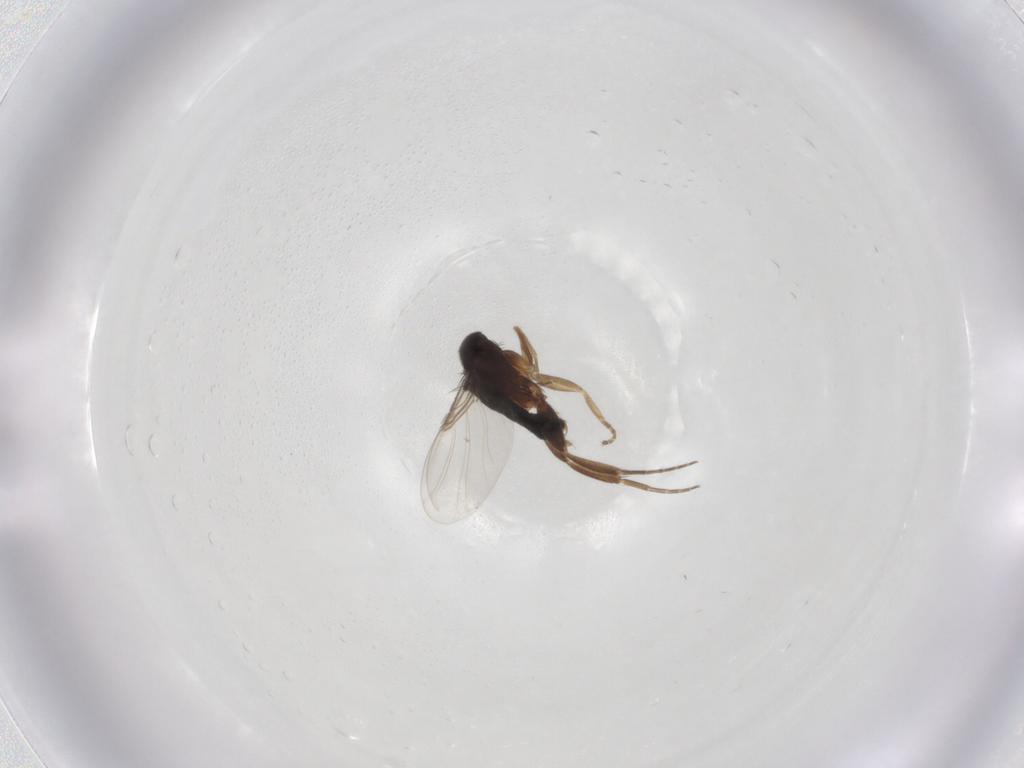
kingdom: Animalia
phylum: Arthropoda
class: Insecta
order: Diptera
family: Phoridae
